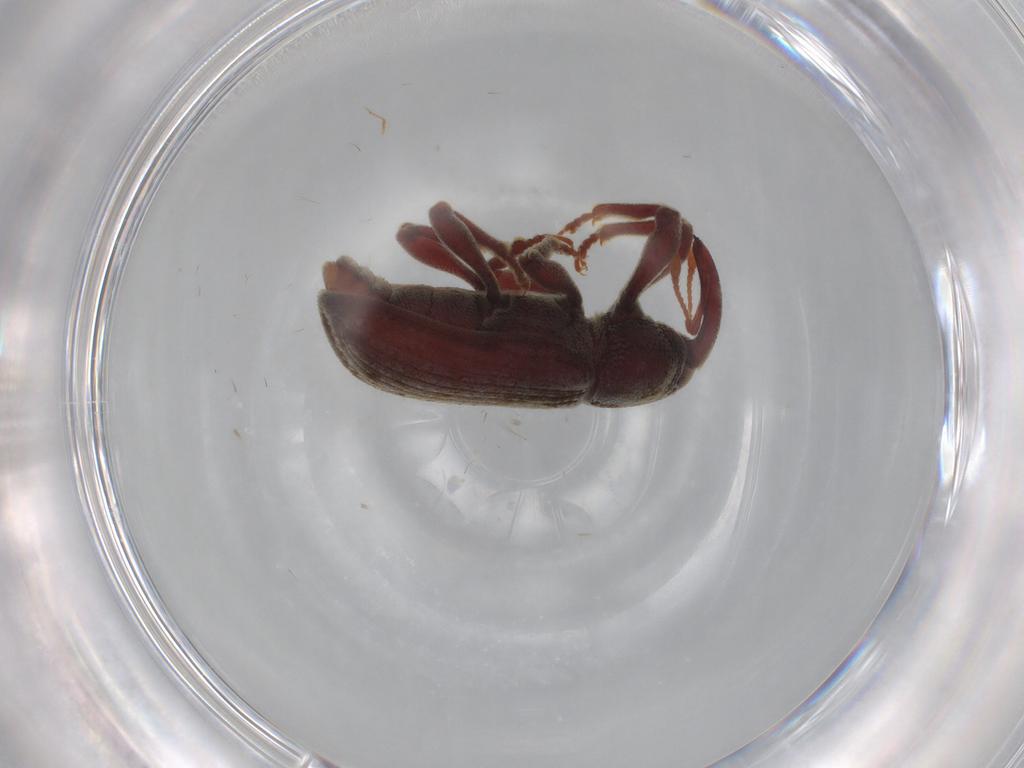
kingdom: Animalia
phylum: Arthropoda
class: Insecta
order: Coleoptera
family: Curculionidae
